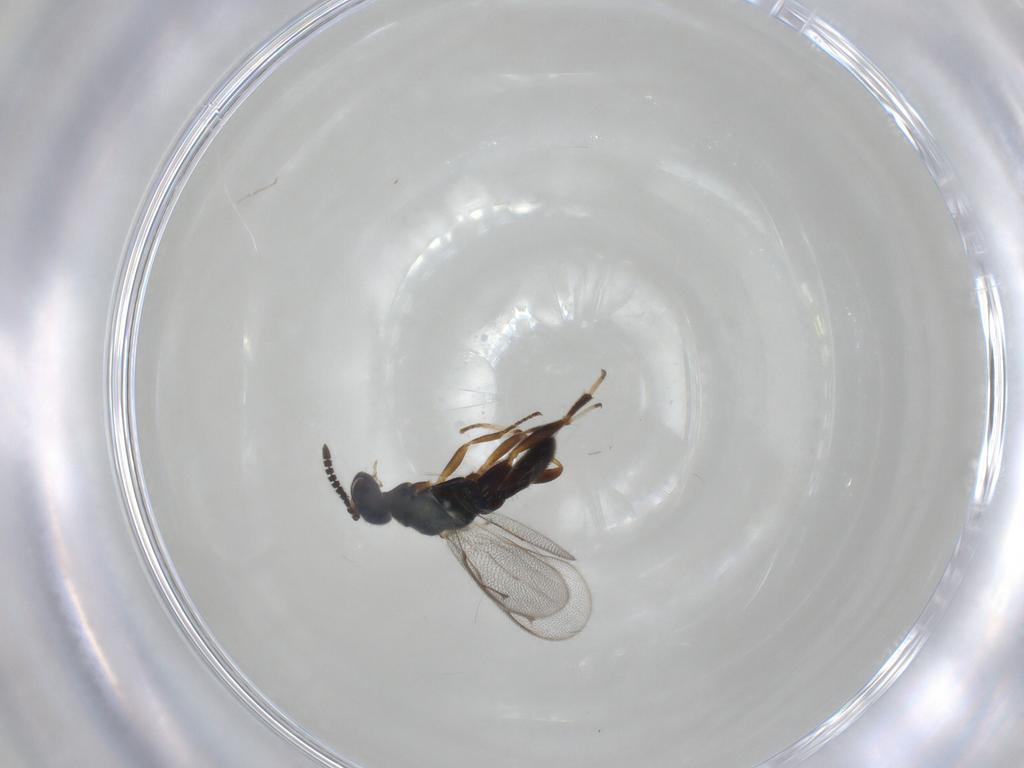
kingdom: Animalia
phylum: Arthropoda
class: Insecta
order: Hymenoptera
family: Cleonyminae
